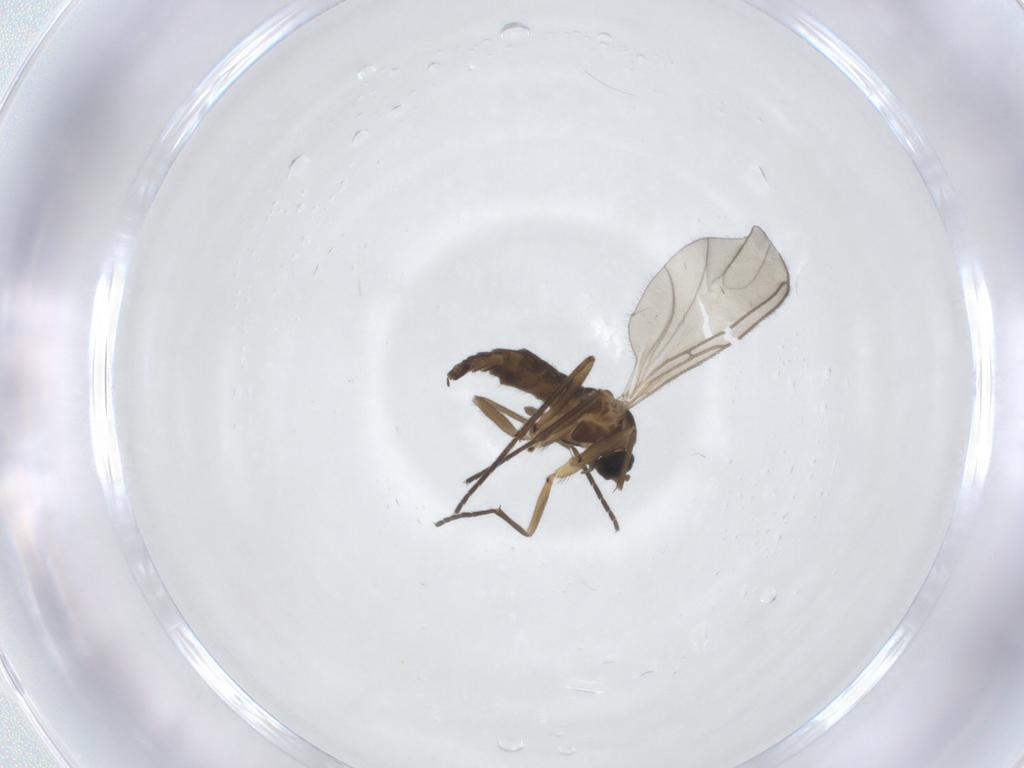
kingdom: Animalia
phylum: Arthropoda
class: Insecta
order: Diptera
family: Sciaridae
